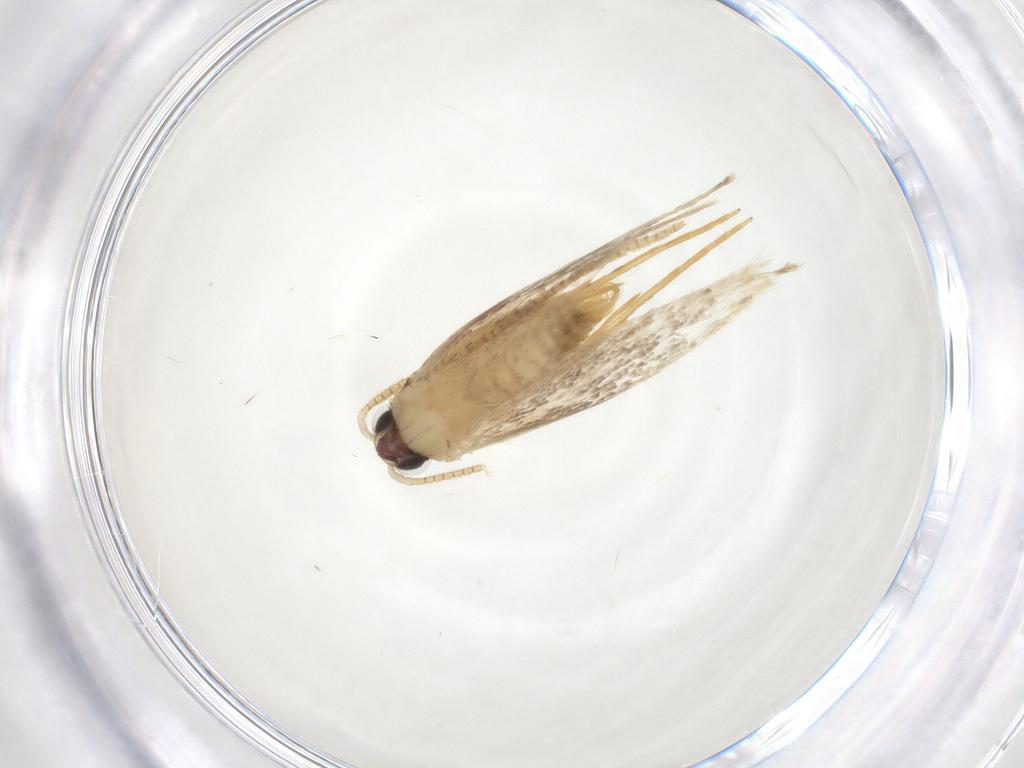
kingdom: Animalia
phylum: Arthropoda
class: Insecta
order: Lepidoptera
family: Nepticulidae
